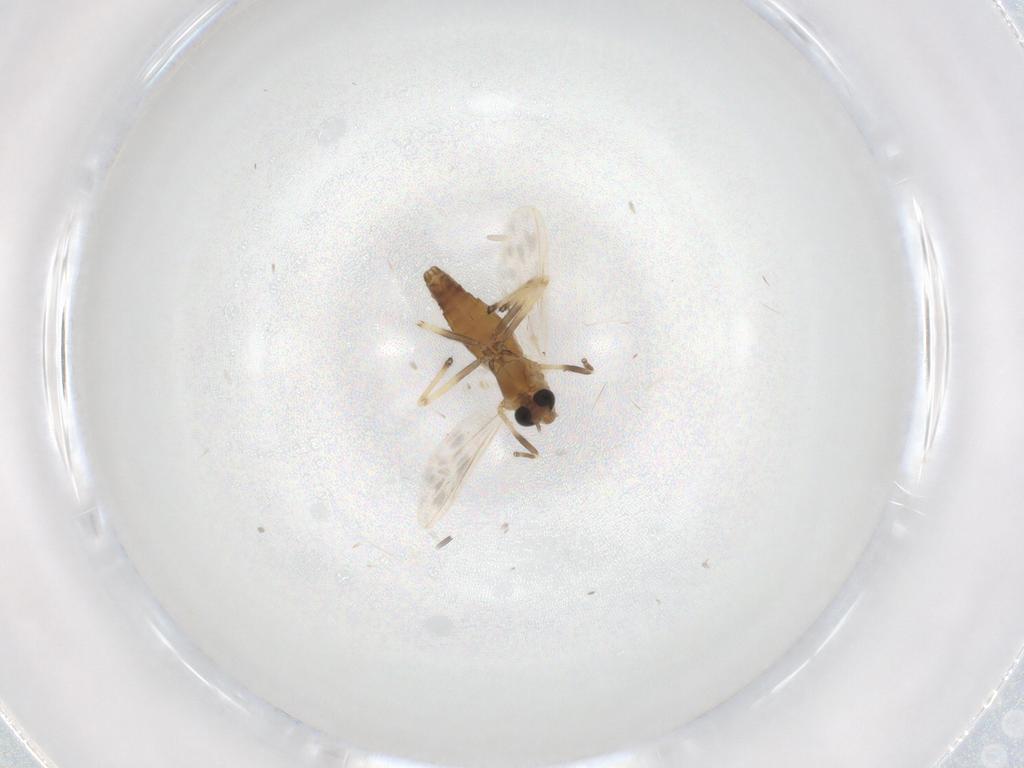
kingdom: Animalia
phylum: Arthropoda
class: Insecta
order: Diptera
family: Chironomidae
